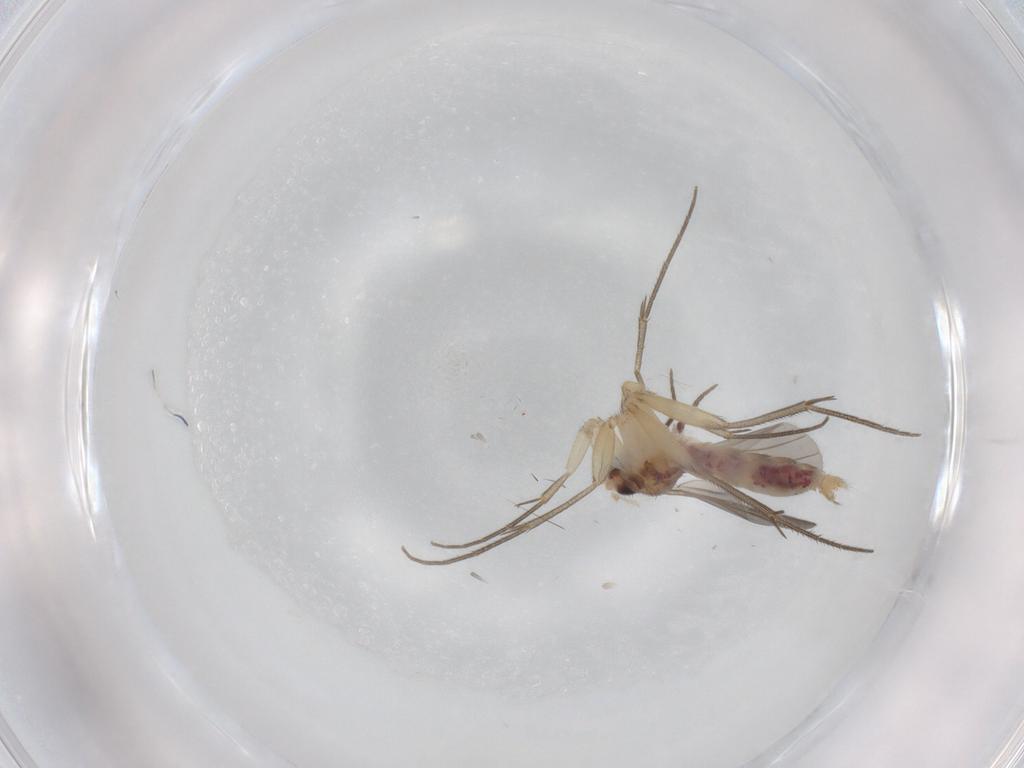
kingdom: Animalia
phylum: Arthropoda
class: Insecta
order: Diptera
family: Mycetophilidae
